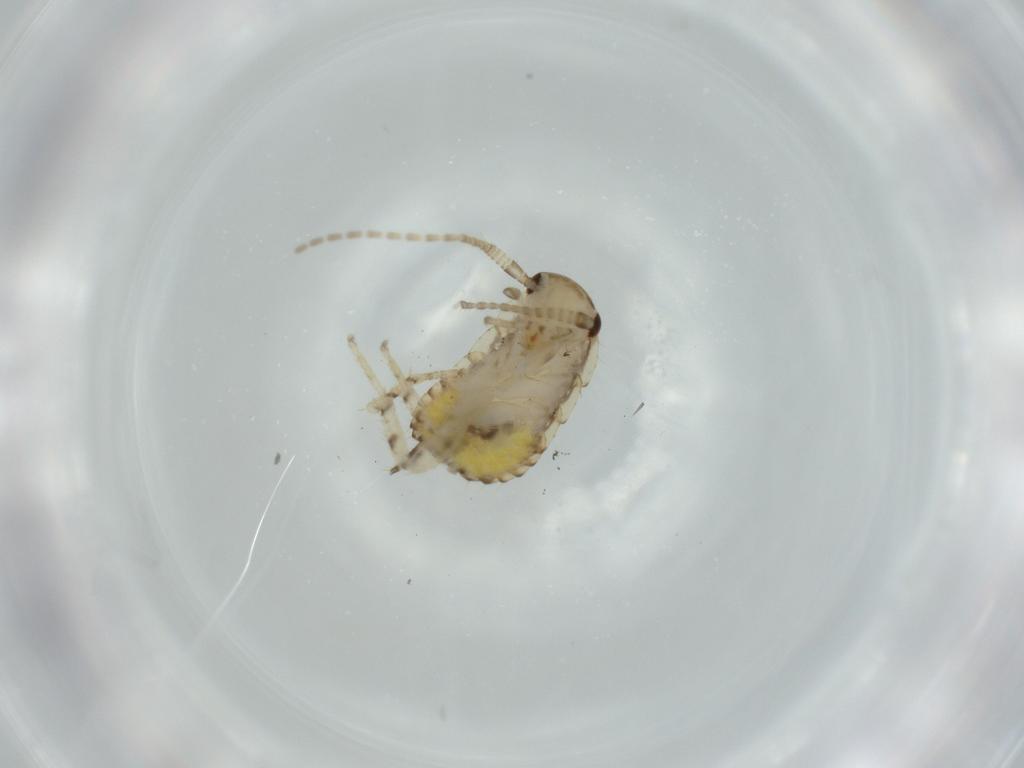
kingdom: Animalia
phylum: Arthropoda
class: Insecta
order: Blattodea
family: Ectobiidae
